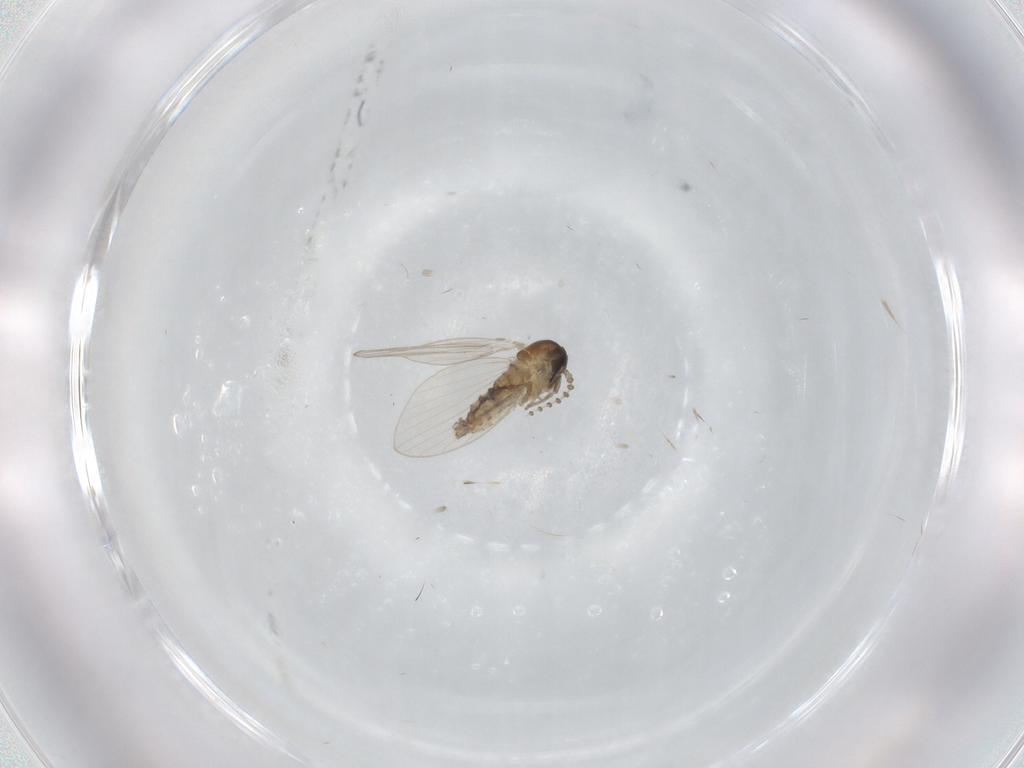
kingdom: Animalia
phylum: Arthropoda
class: Insecta
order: Diptera
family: Psychodidae
